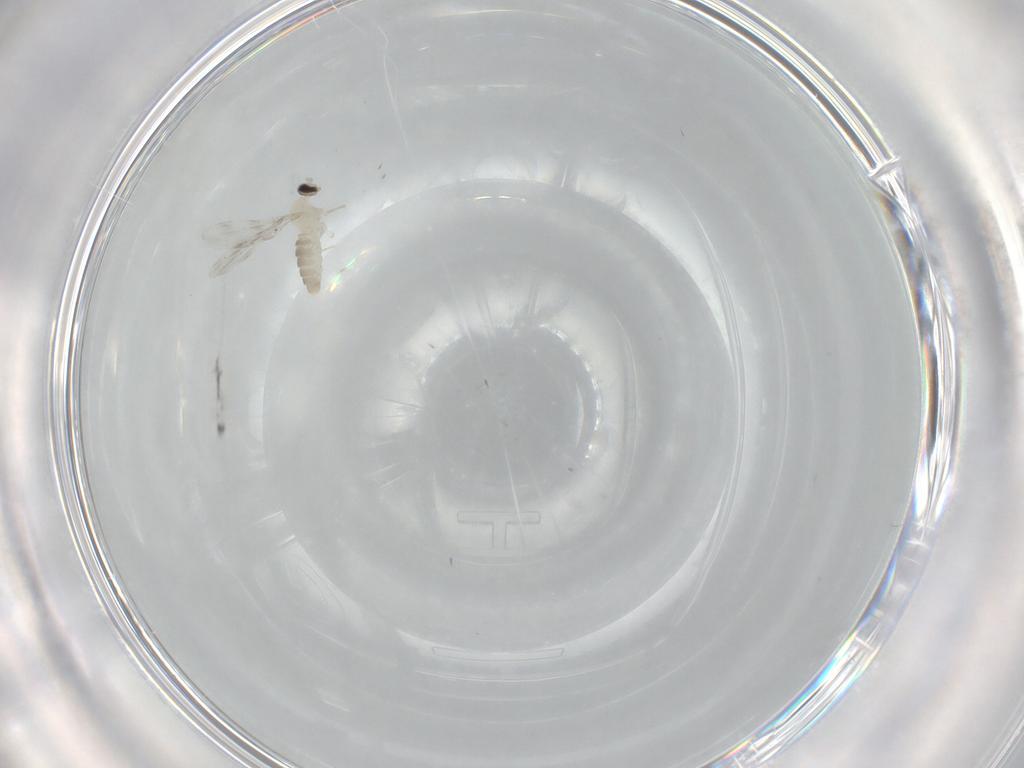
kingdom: Animalia
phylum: Arthropoda
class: Insecta
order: Diptera
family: Cecidomyiidae
